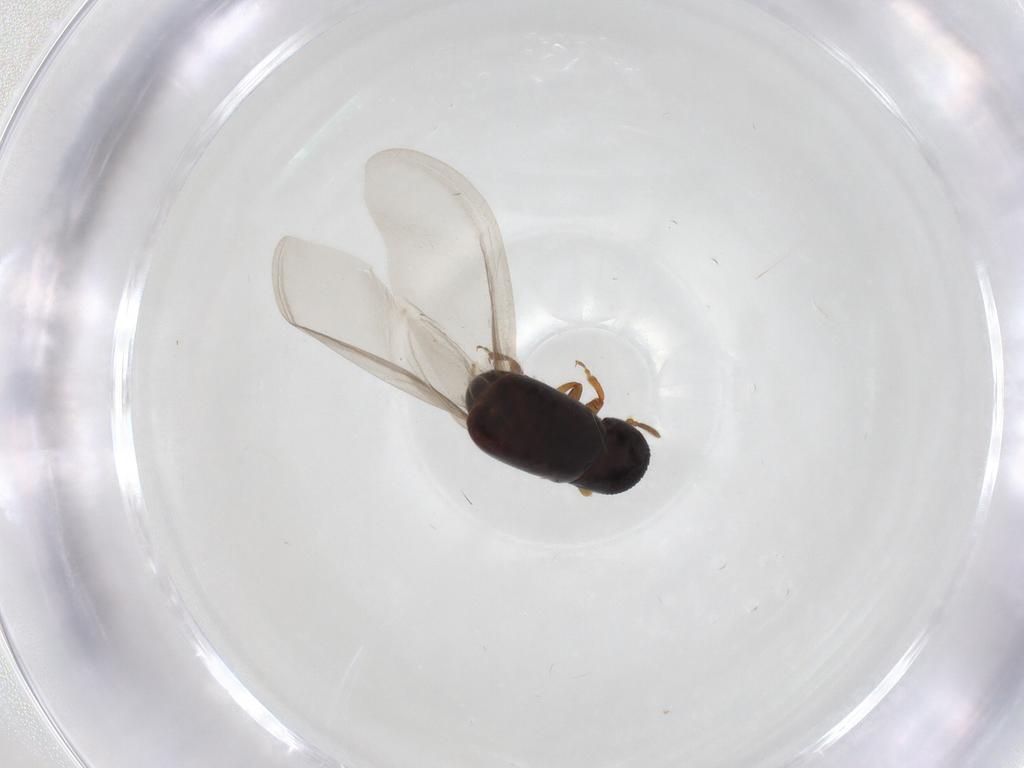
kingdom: Animalia
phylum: Arthropoda
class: Insecta
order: Coleoptera
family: Curculionidae
